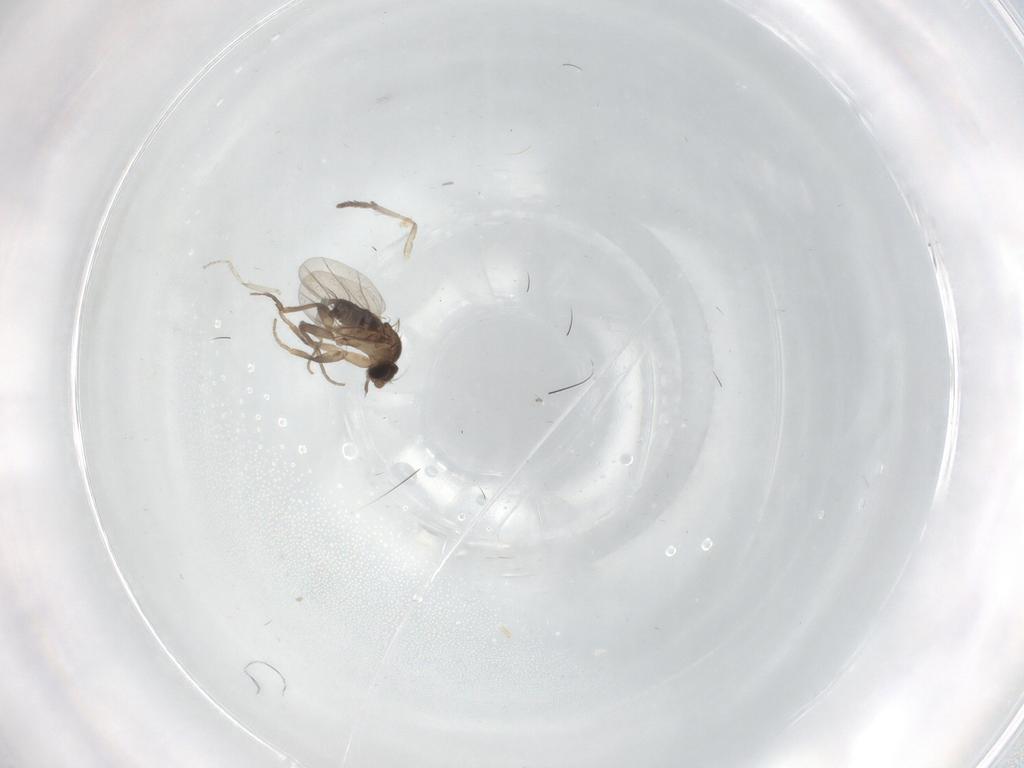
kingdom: Animalia
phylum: Arthropoda
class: Insecta
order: Diptera
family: Phoridae
